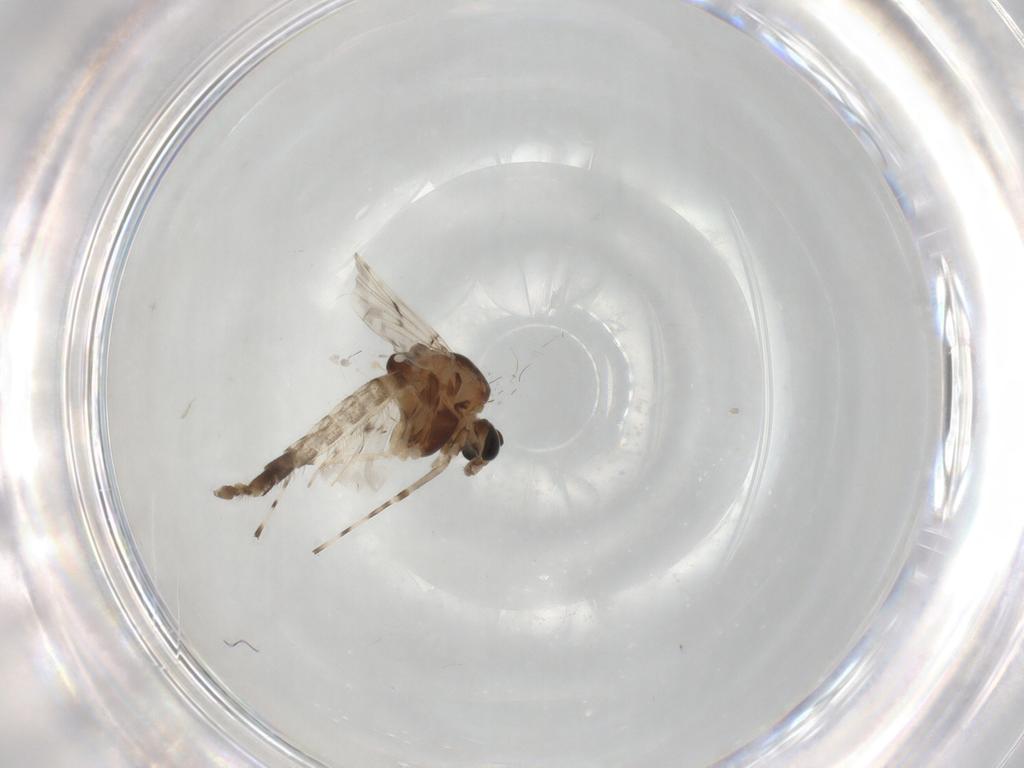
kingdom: Animalia
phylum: Arthropoda
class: Insecta
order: Diptera
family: Chironomidae
